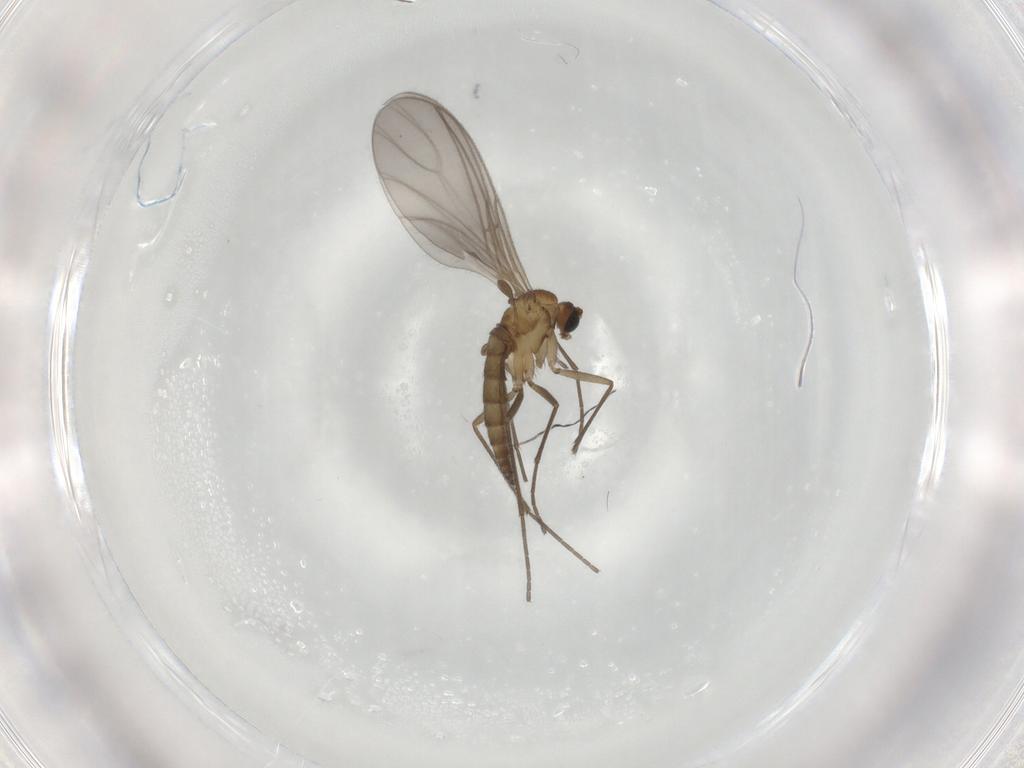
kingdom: Animalia
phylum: Arthropoda
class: Insecta
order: Diptera
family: Sciaridae
